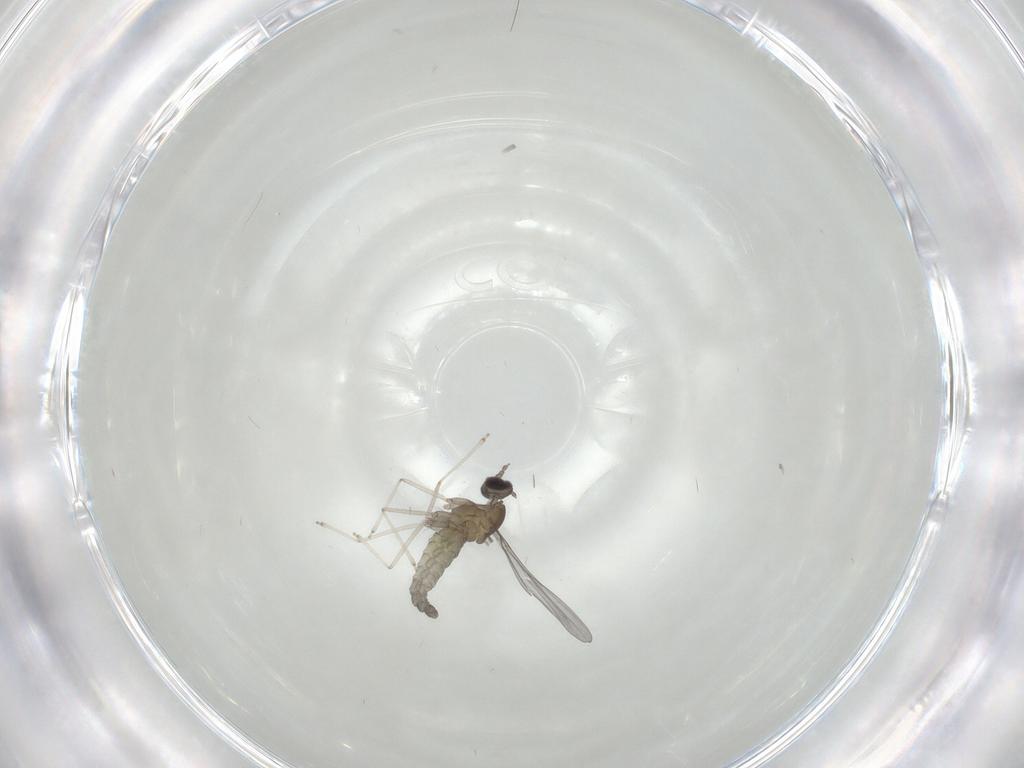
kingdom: Animalia
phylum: Arthropoda
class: Insecta
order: Diptera
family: Cecidomyiidae
